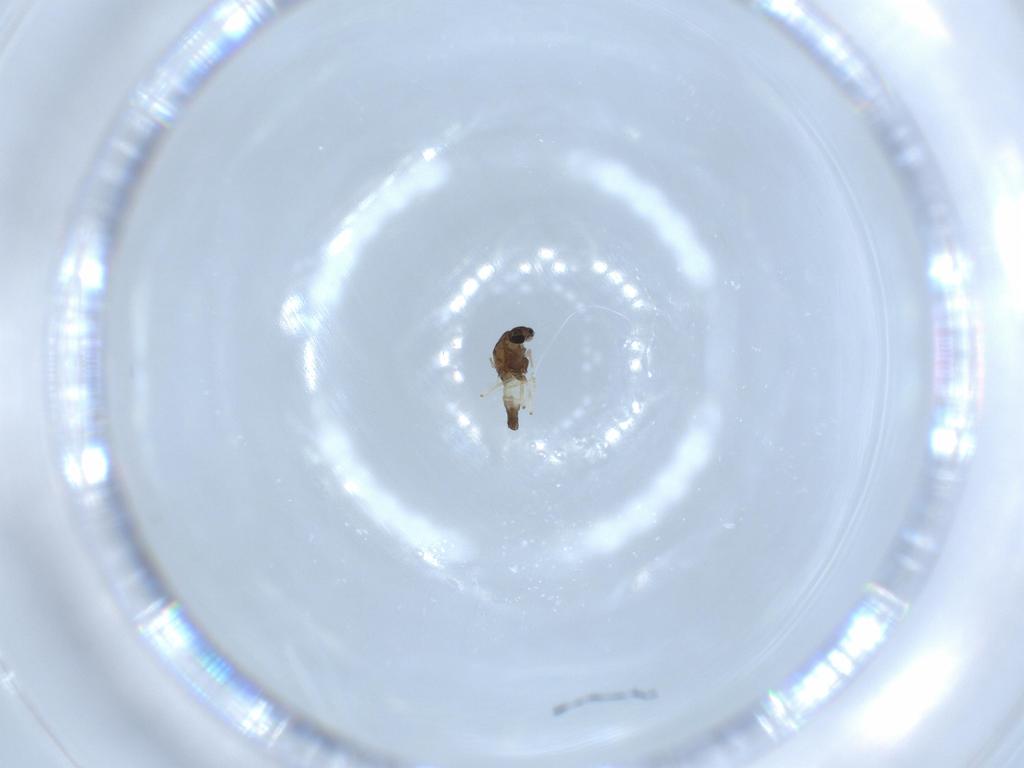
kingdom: Animalia
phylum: Arthropoda
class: Insecta
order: Diptera
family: Chironomidae
